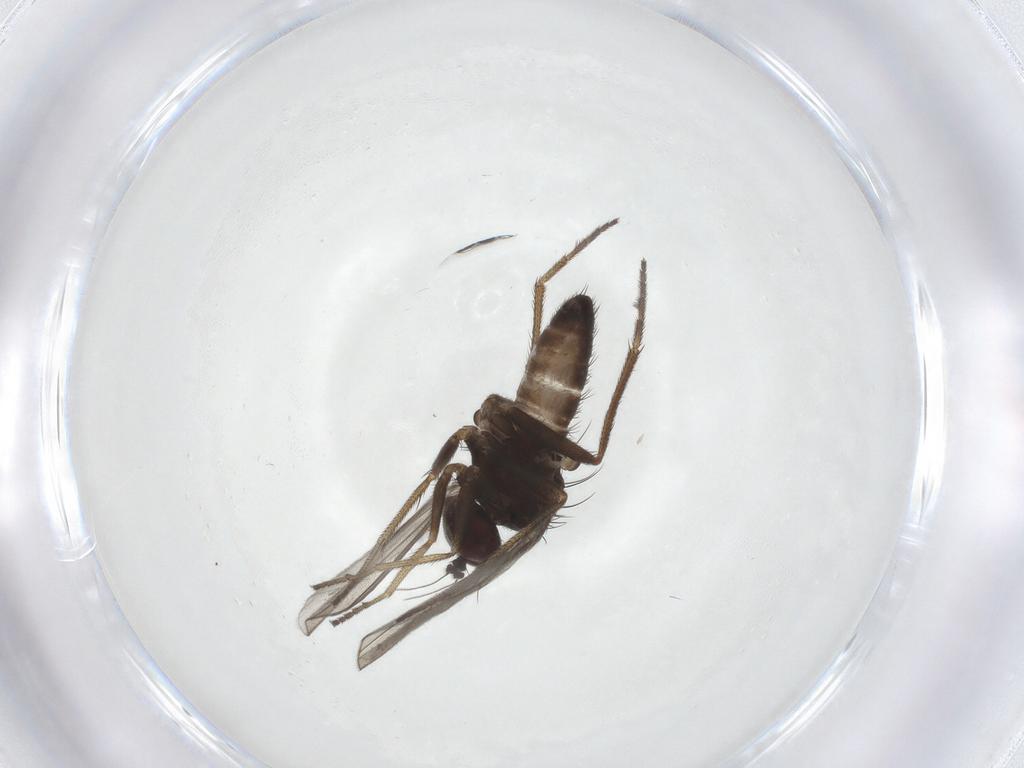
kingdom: Animalia
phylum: Arthropoda
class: Insecta
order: Diptera
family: Dolichopodidae
